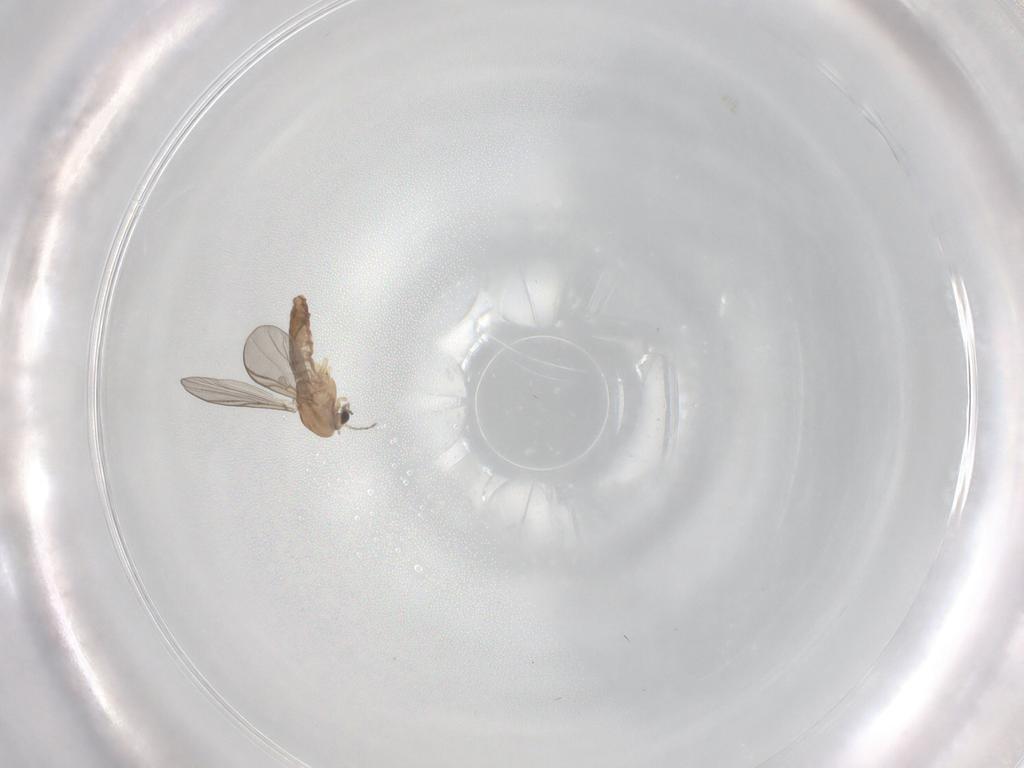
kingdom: Animalia
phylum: Arthropoda
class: Insecta
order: Diptera
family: Chironomidae
